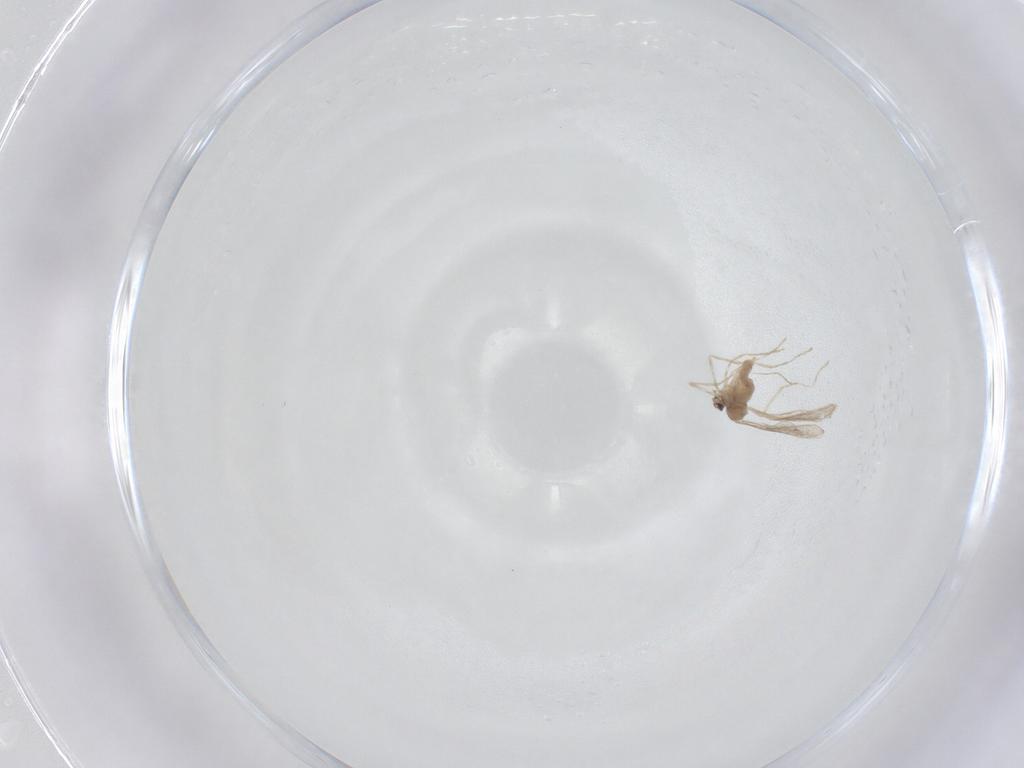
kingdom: Animalia
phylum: Arthropoda
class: Insecta
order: Diptera
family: Cecidomyiidae
